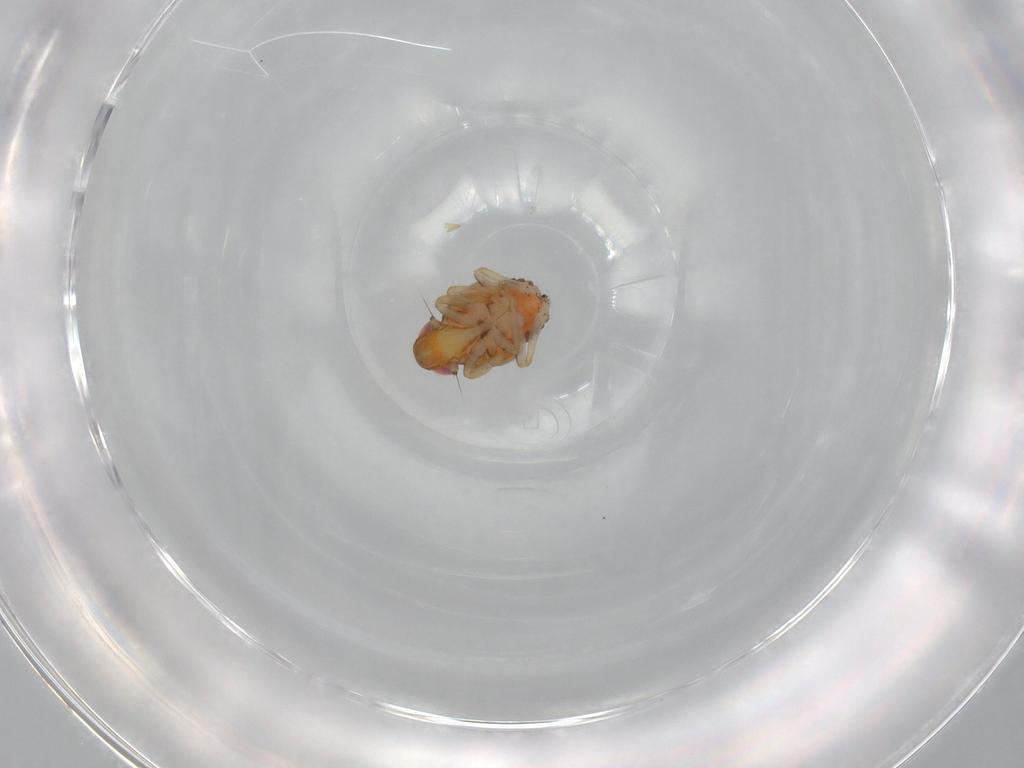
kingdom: Animalia
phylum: Arthropoda
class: Insecta
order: Hemiptera
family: Issidae
